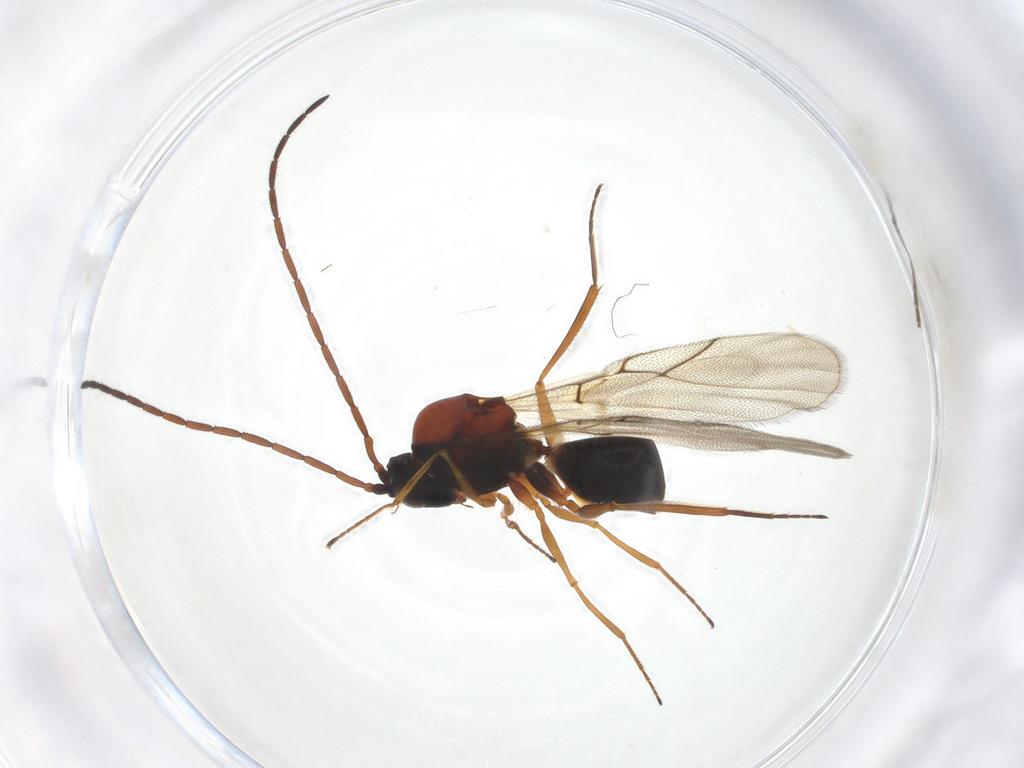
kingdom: Animalia
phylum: Arthropoda
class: Insecta
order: Hymenoptera
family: Figitidae
